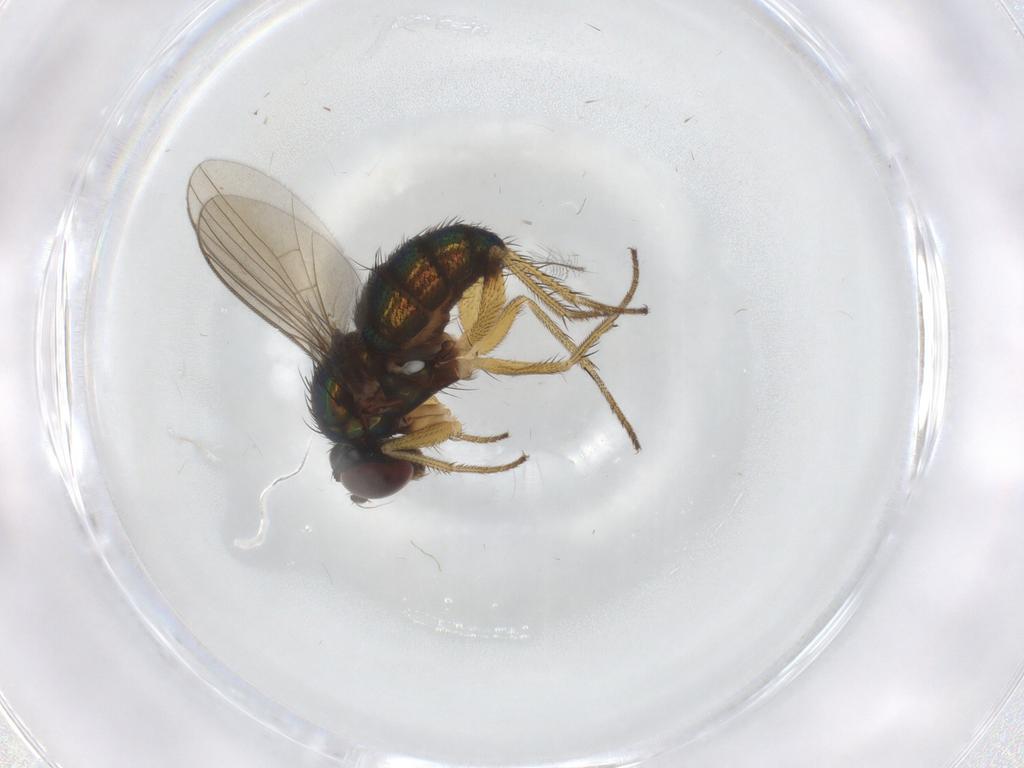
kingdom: Animalia
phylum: Arthropoda
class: Insecta
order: Diptera
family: Dolichopodidae
